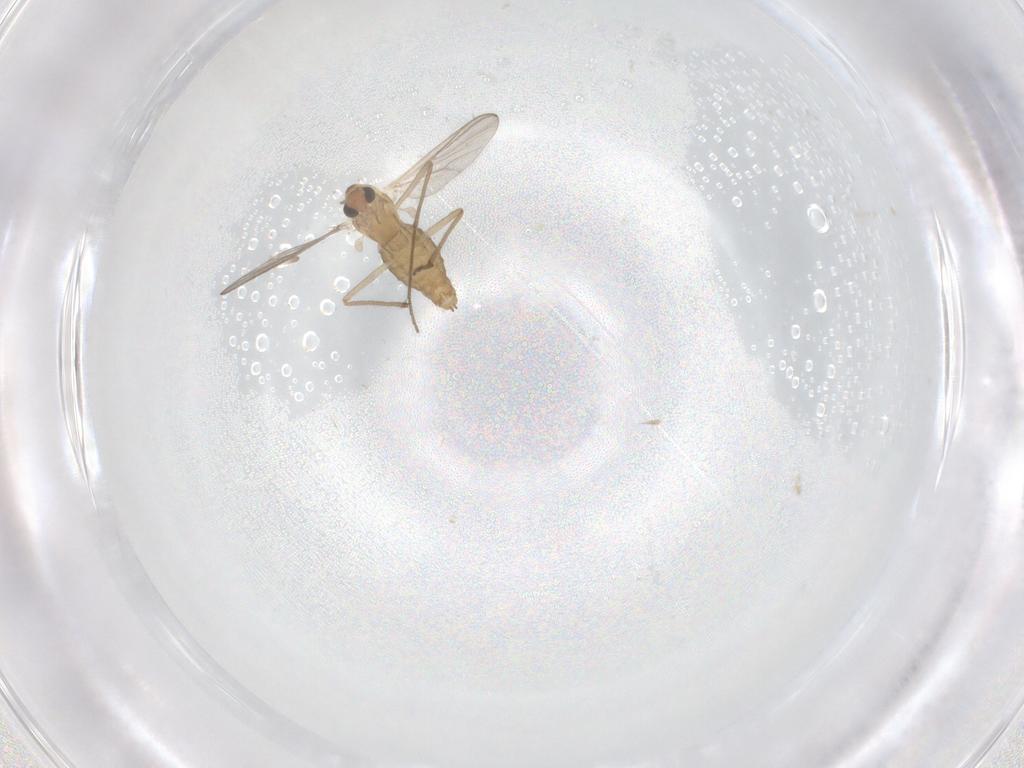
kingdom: Animalia
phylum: Arthropoda
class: Insecta
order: Diptera
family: Chironomidae
